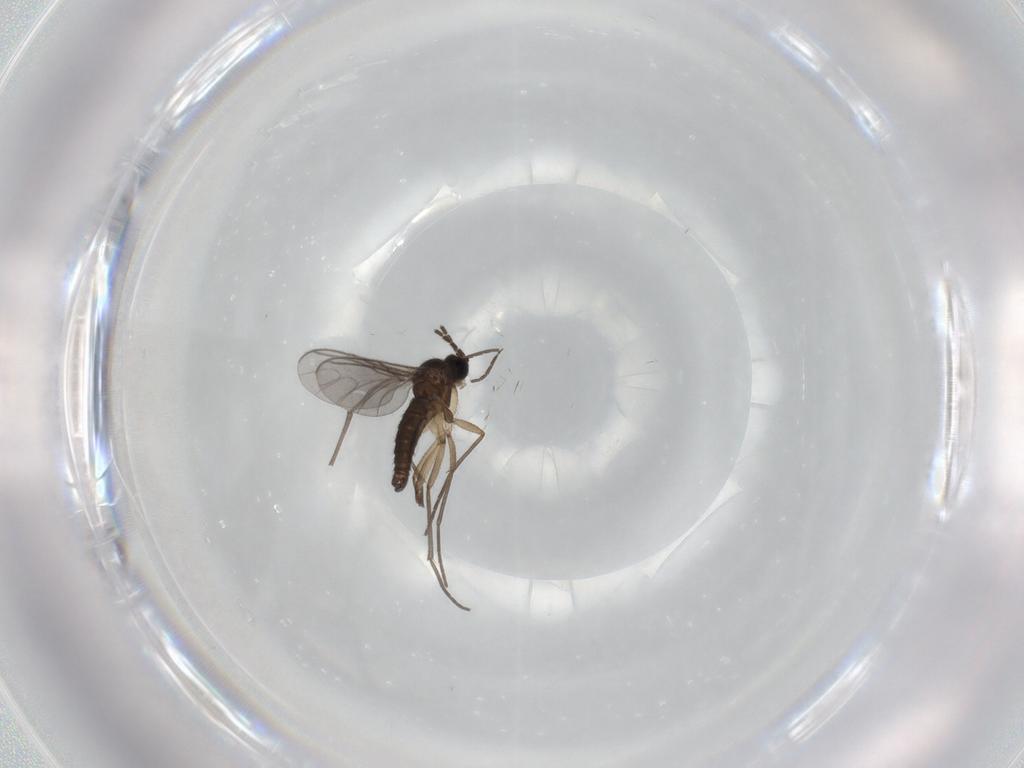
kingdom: Animalia
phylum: Arthropoda
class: Insecta
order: Diptera
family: Sciaridae
